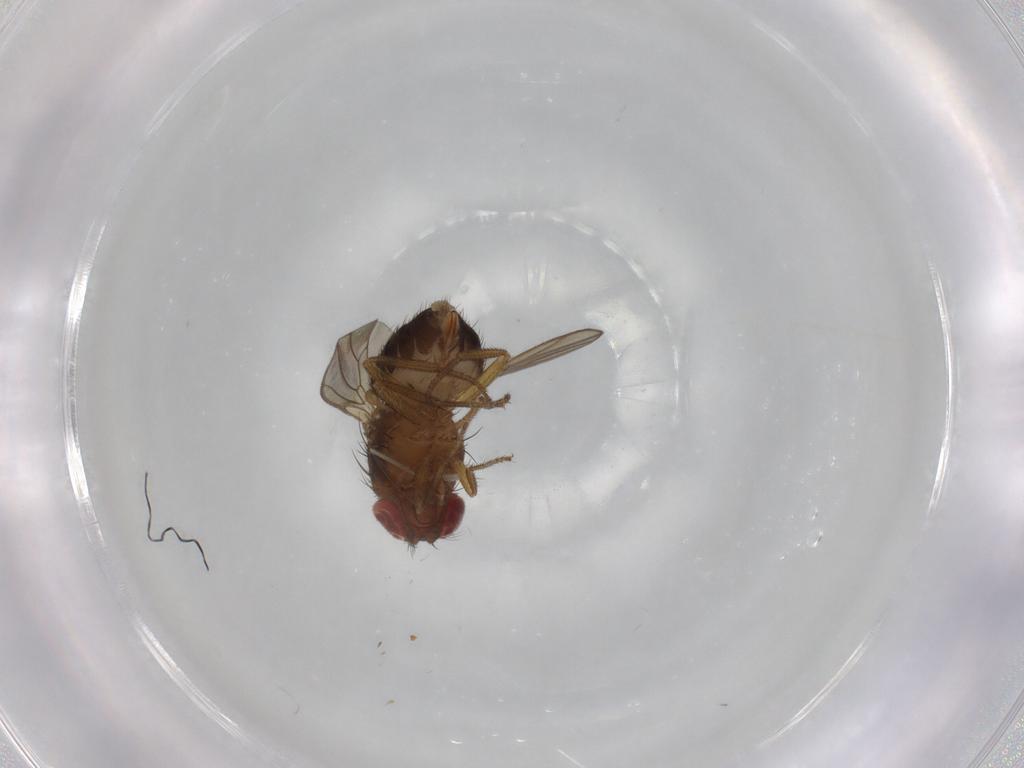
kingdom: Animalia
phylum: Arthropoda
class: Insecta
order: Diptera
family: Drosophilidae
